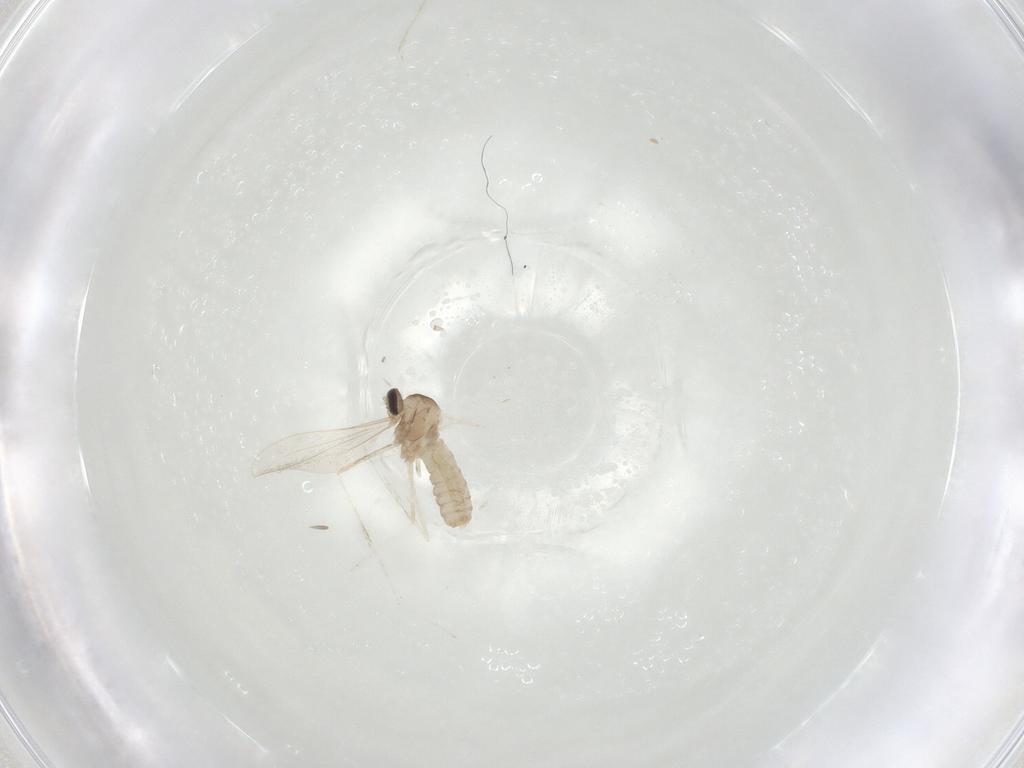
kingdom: Animalia
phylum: Arthropoda
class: Insecta
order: Diptera
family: Cecidomyiidae
